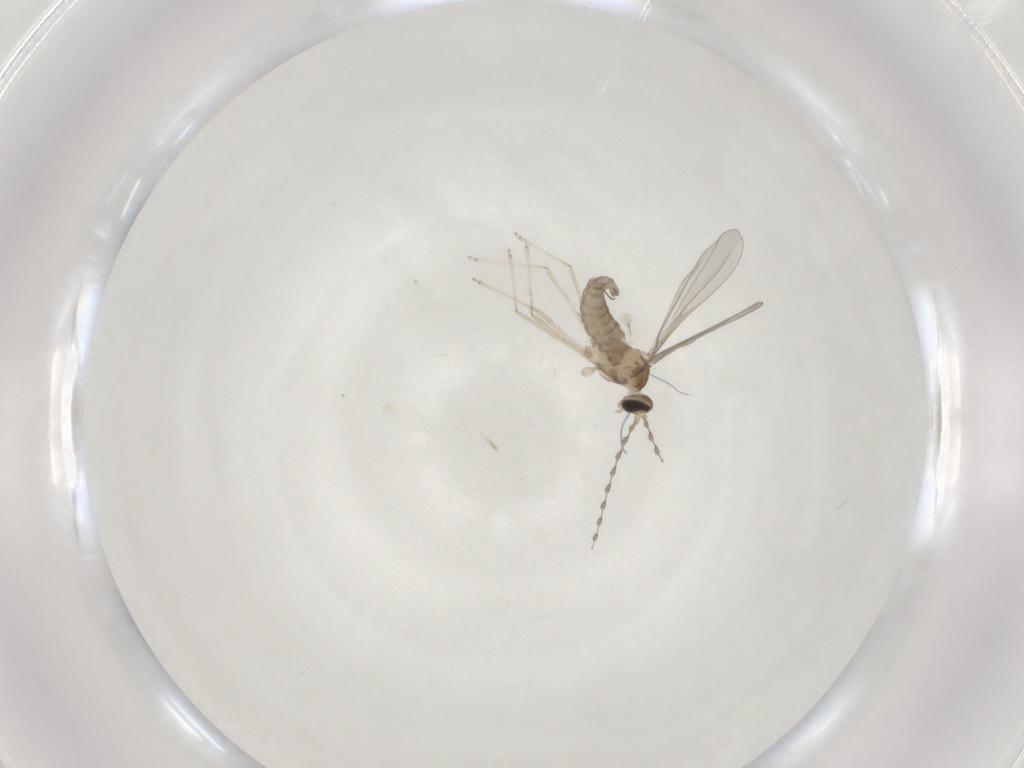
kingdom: Animalia
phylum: Arthropoda
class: Insecta
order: Diptera
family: Cecidomyiidae
